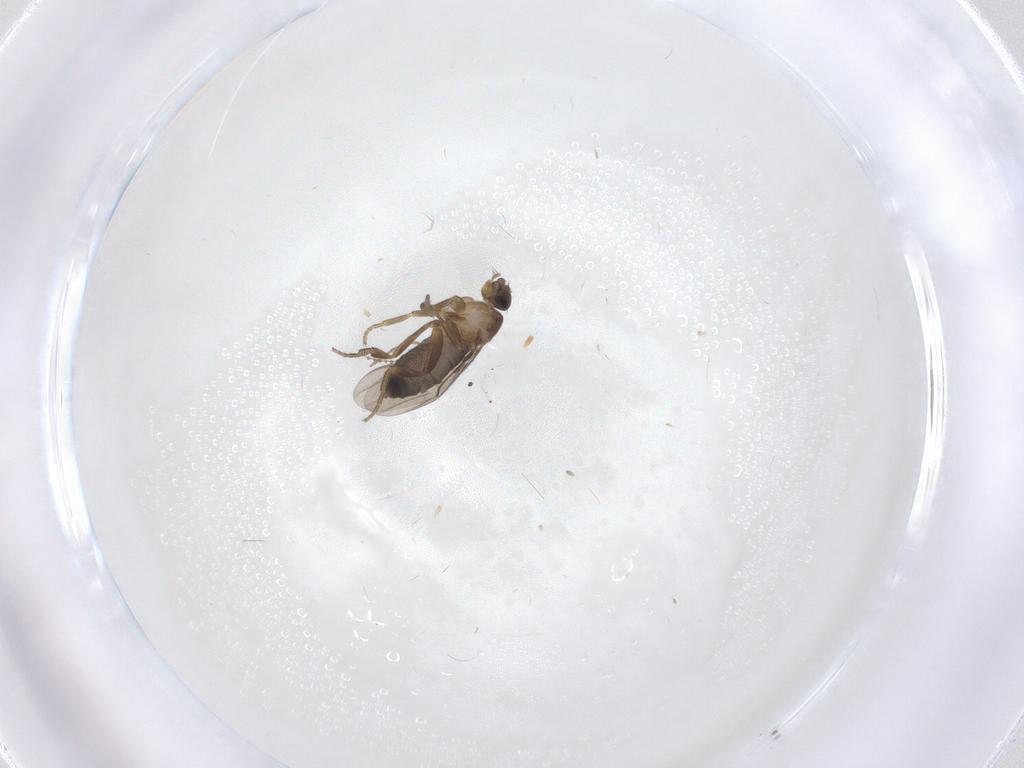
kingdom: Animalia
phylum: Arthropoda
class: Insecta
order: Diptera
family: Phoridae
